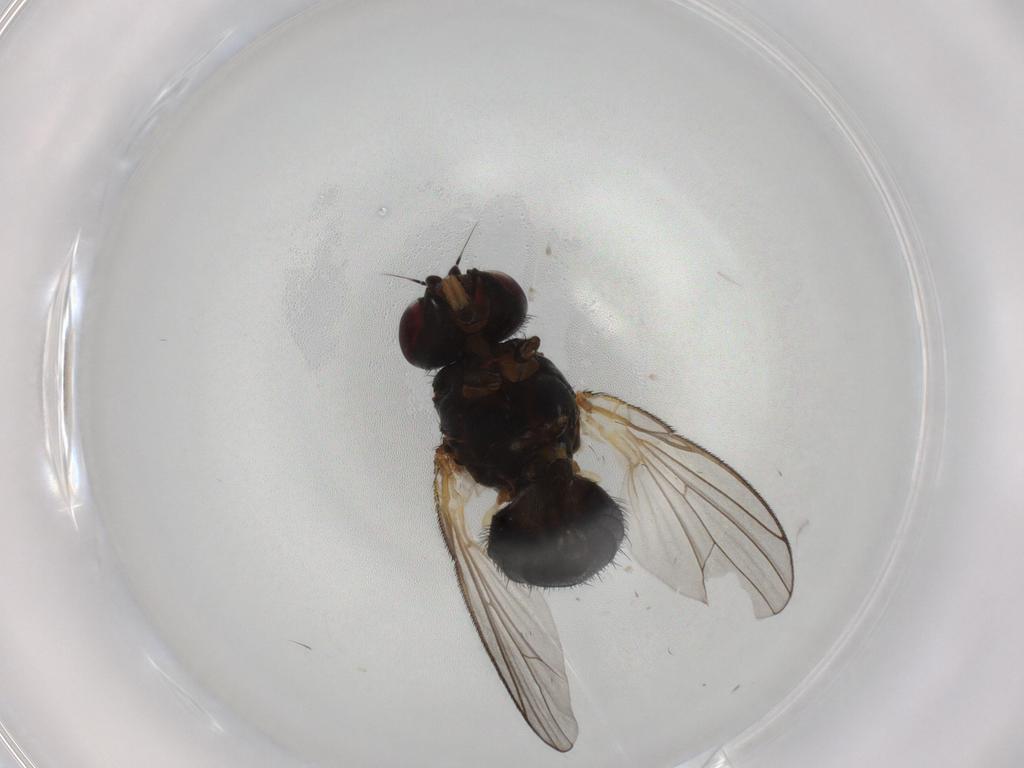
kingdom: Animalia
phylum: Arthropoda
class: Insecta
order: Diptera
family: Fannia
